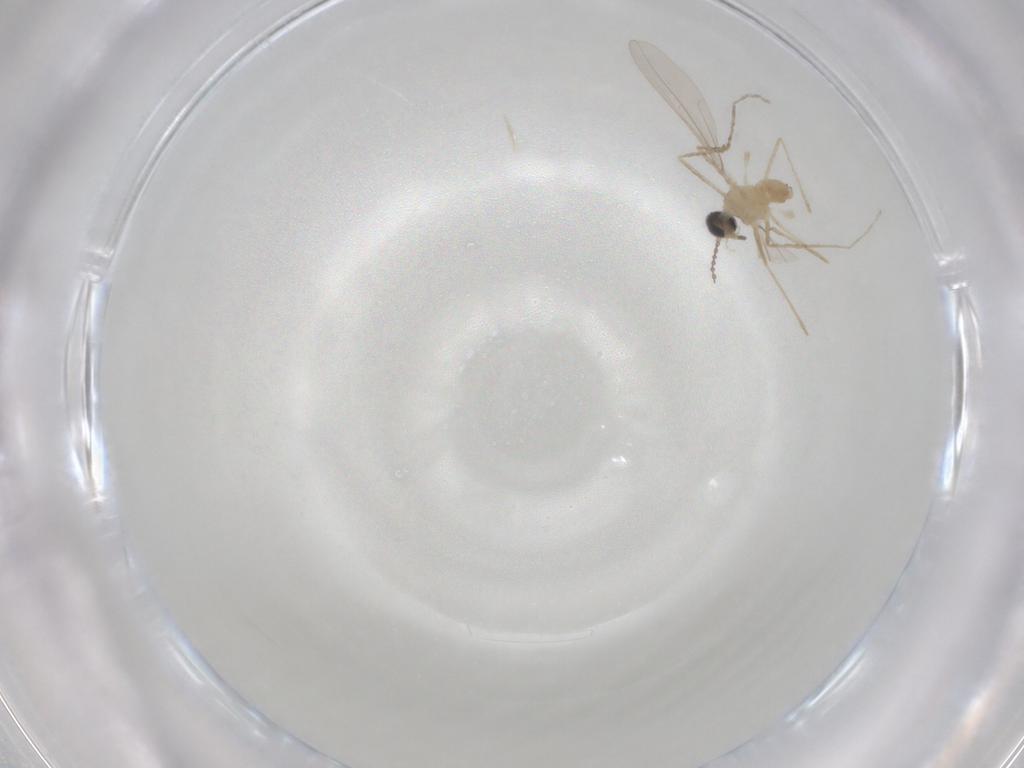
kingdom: Animalia
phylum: Arthropoda
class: Insecta
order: Diptera
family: Cecidomyiidae
